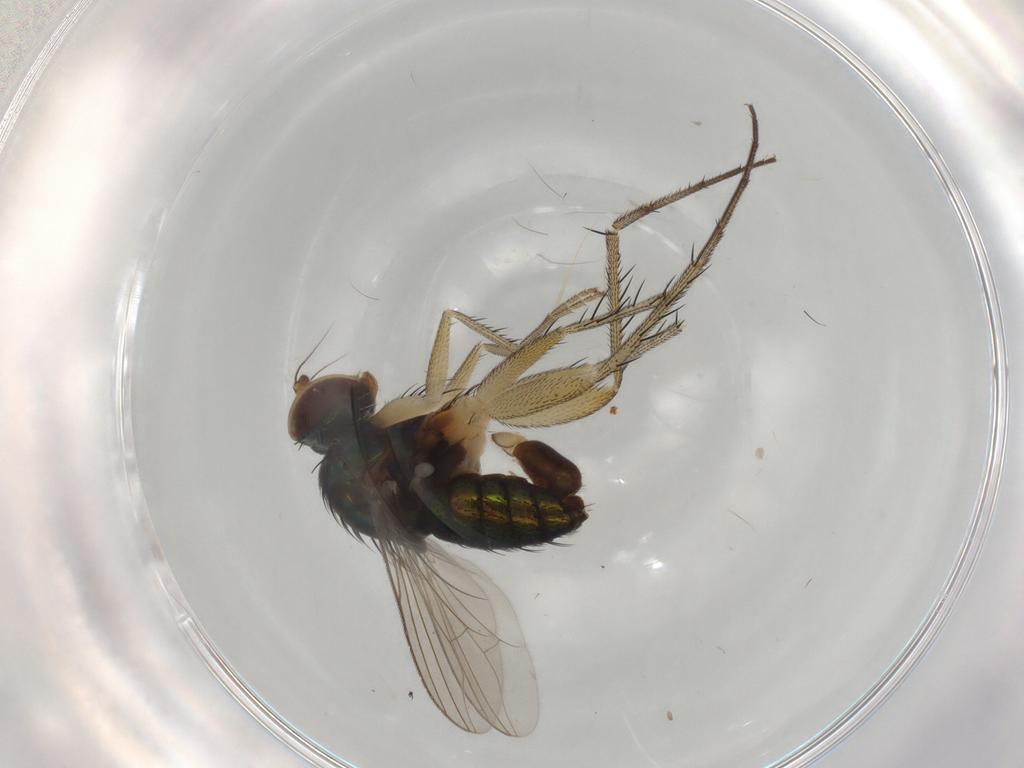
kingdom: Animalia
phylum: Arthropoda
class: Insecta
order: Diptera
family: Dolichopodidae
